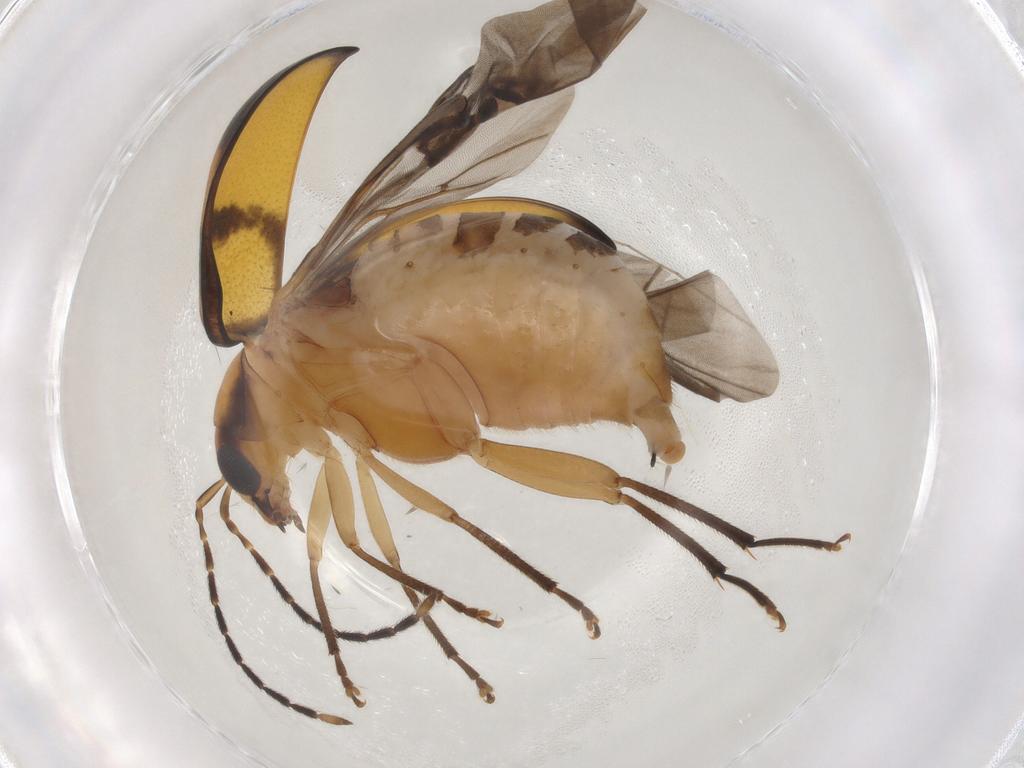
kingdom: Animalia
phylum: Arthropoda
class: Insecta
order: Coleoptera
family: Chrysomelidae
